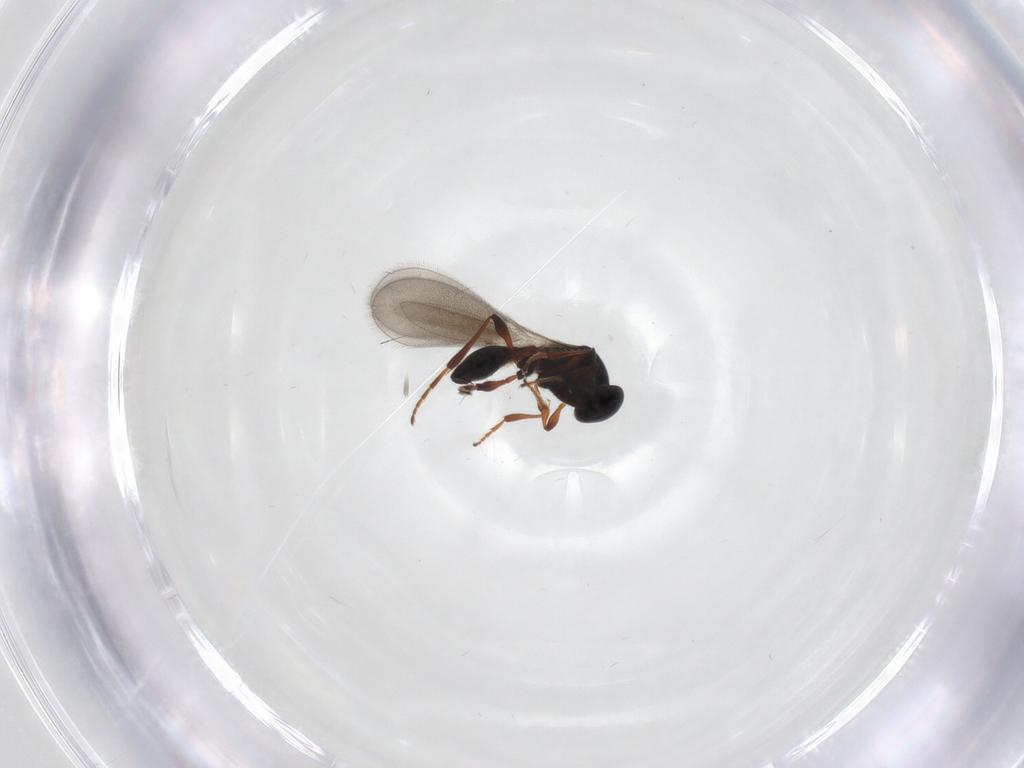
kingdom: Animalia
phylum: Arthropoda
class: Insecta
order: Hymenoptera
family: Platygastridae
